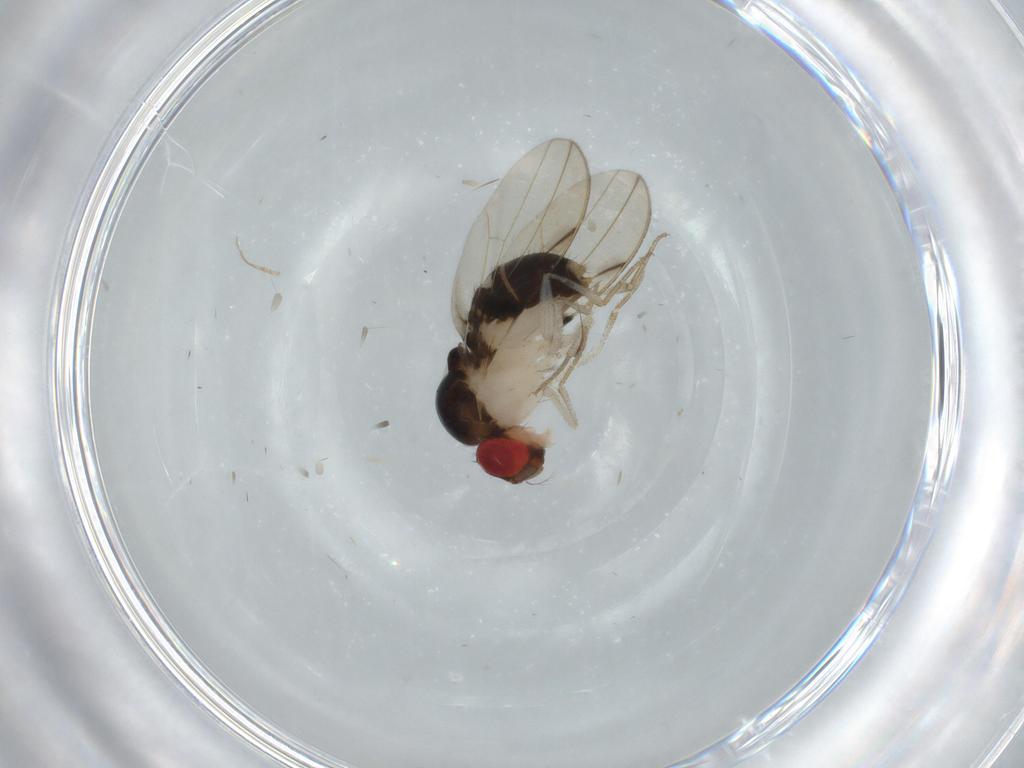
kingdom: Animalia
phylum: Arthropoda
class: Insecta
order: Diptera
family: Drosophilidae
